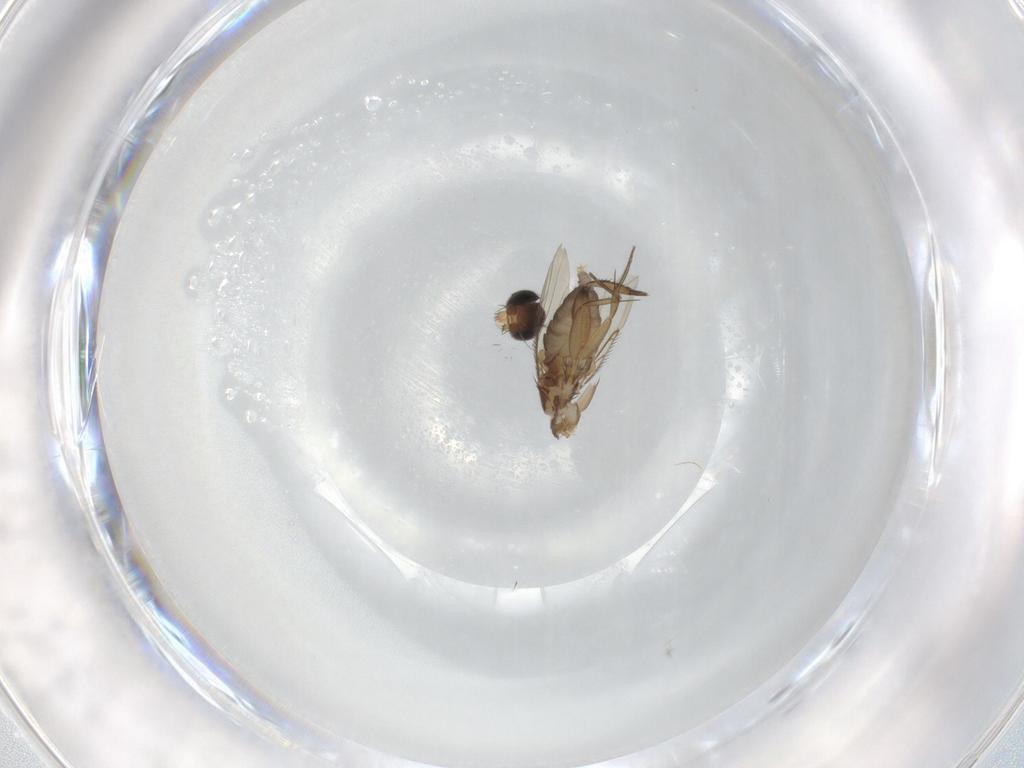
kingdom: Animalia
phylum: Arthropoda
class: Insecta
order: Diptera
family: Phoridae
